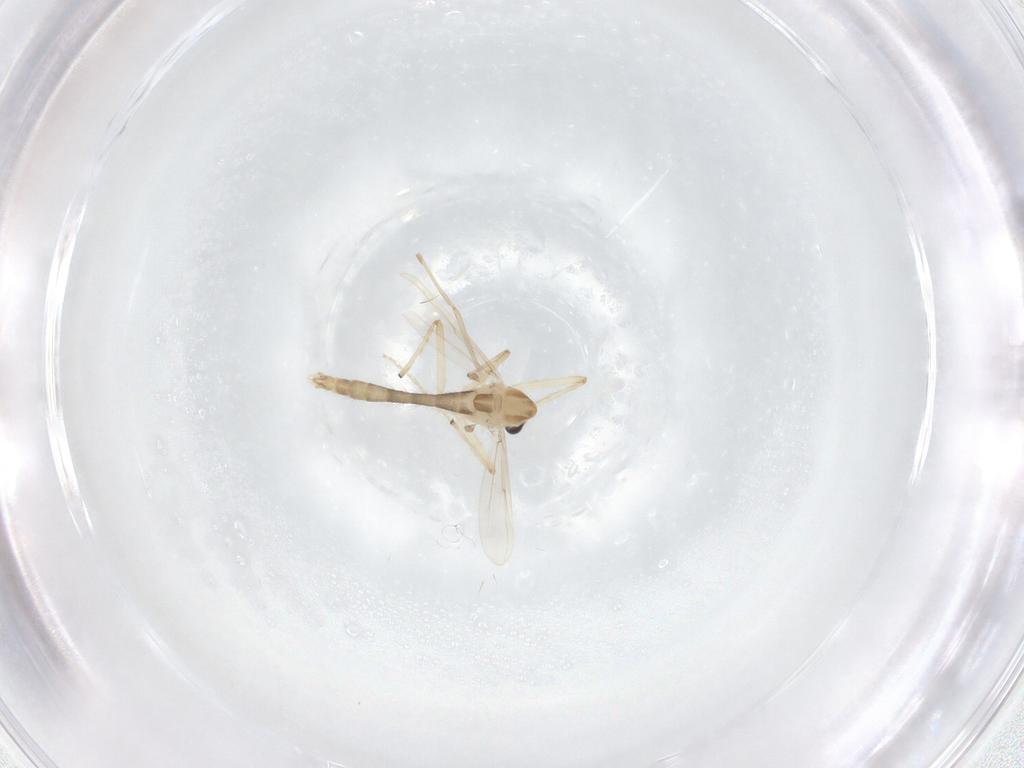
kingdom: Animalia
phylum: Arthropoda
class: Insecta
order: Diptera
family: Chironomidae
